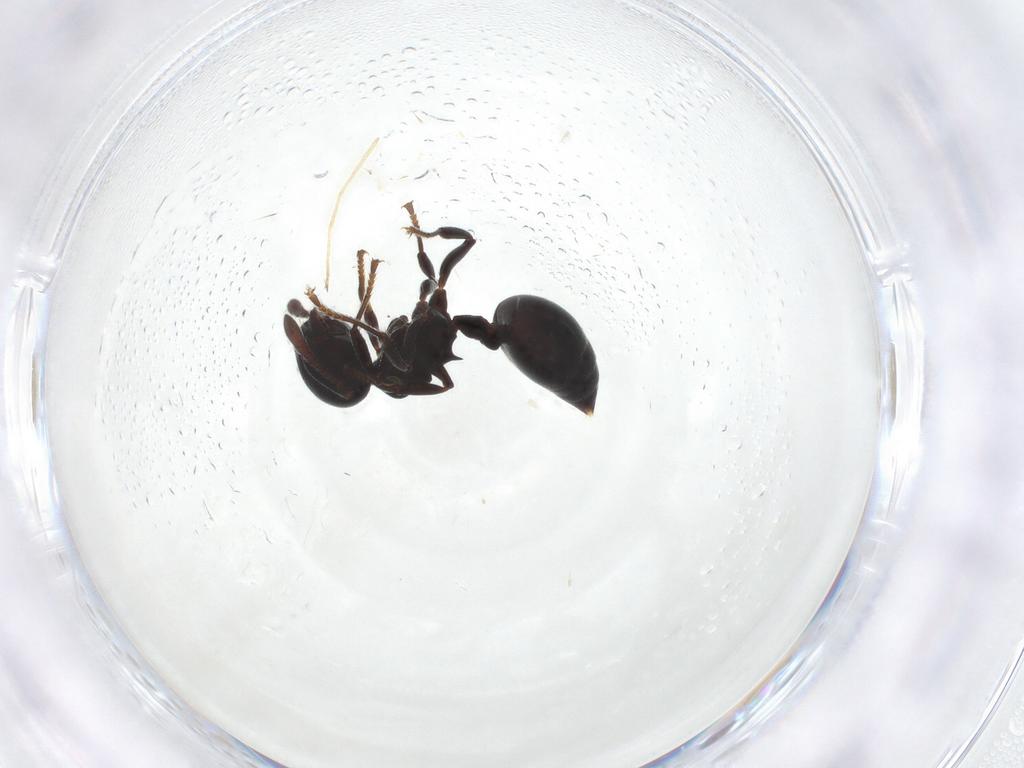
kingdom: Animalia
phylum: Arthropoda
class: Insecta
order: Hymenoptera
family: Formicidae
